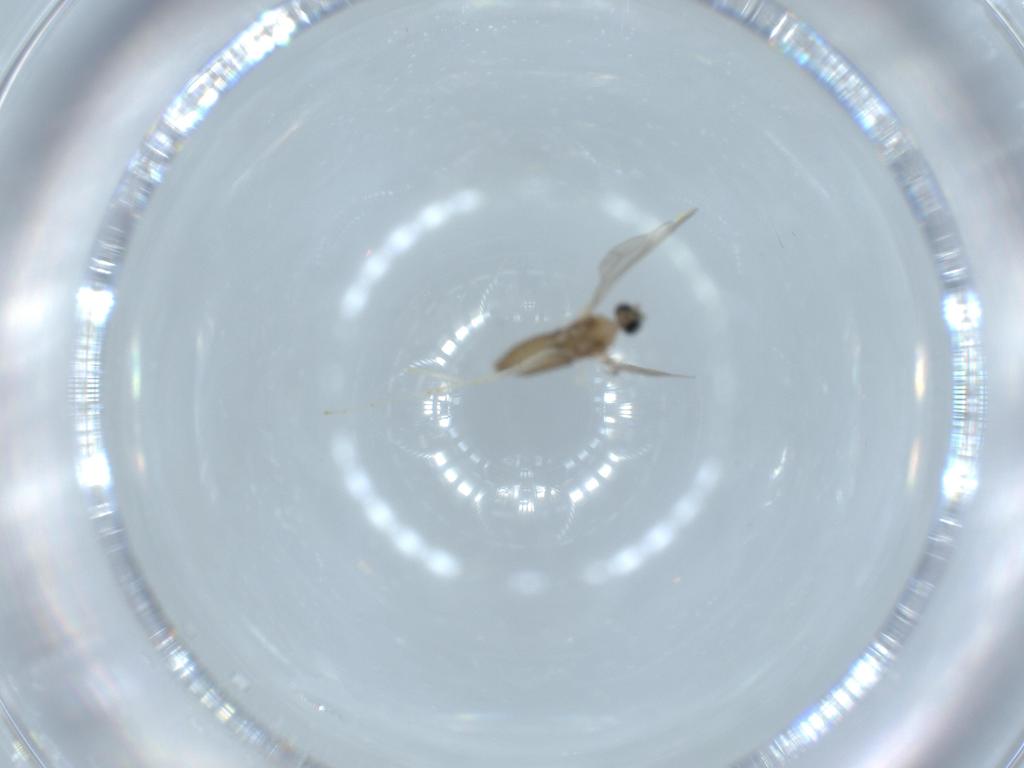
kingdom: Animalia
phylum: Arthropoda
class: Insecta
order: Diptera
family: Cecidomyiidae
